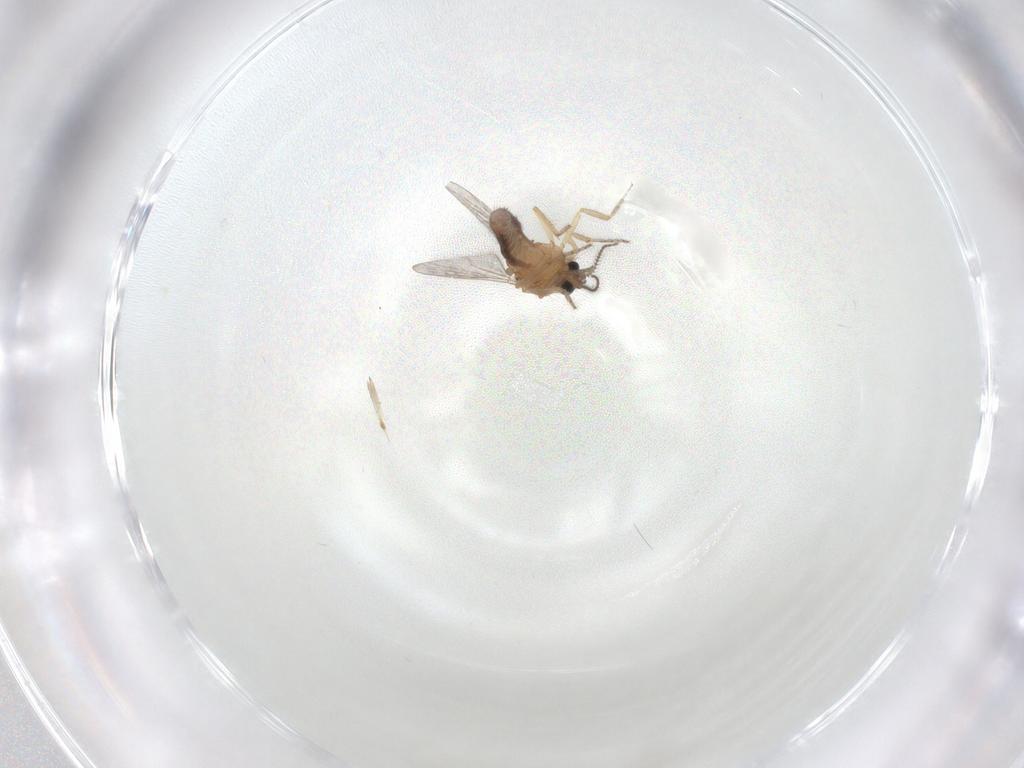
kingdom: Animalia
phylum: Arthropoda
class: Insecta
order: Diptera
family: Ceratopogonidae
